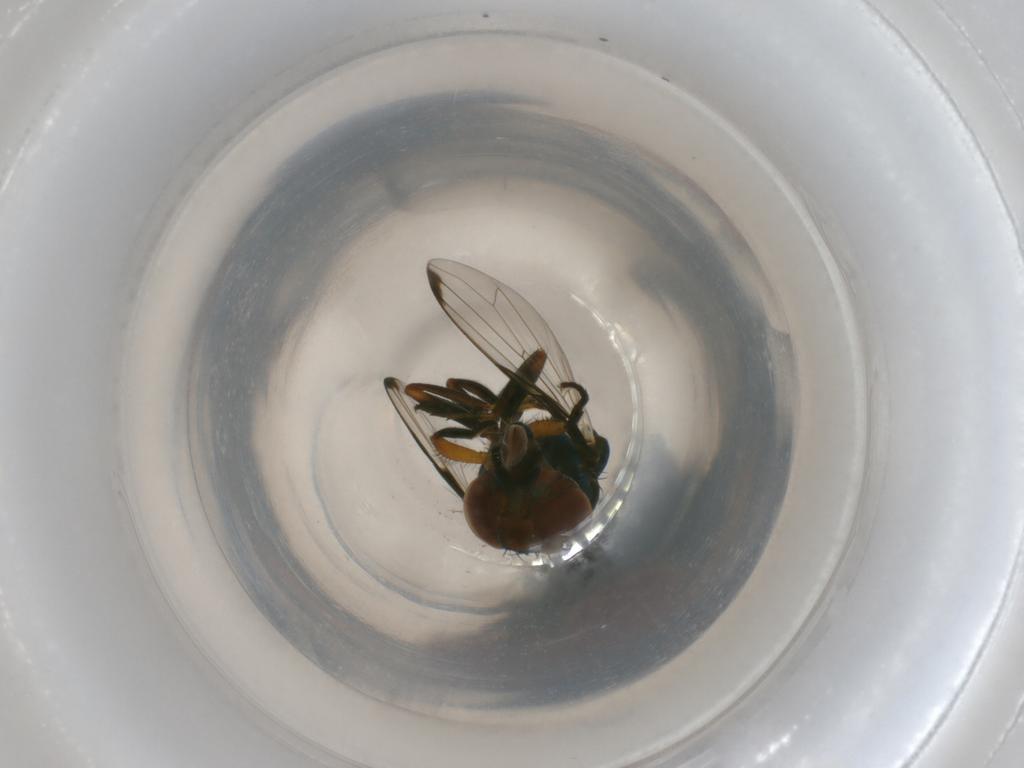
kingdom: Animalia
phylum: Arthropoda
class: Insecta
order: Diptera
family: Ulidiidae
